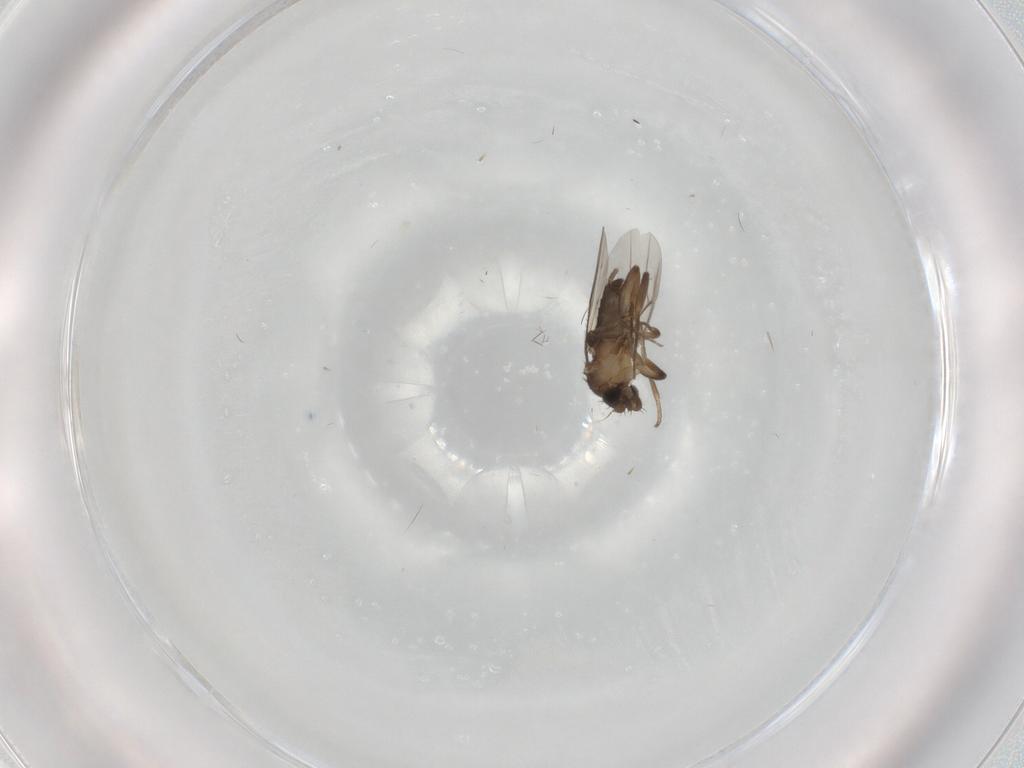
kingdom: Animalia
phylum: Arthropoda
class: Insecta
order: Diptera
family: Phoridae
